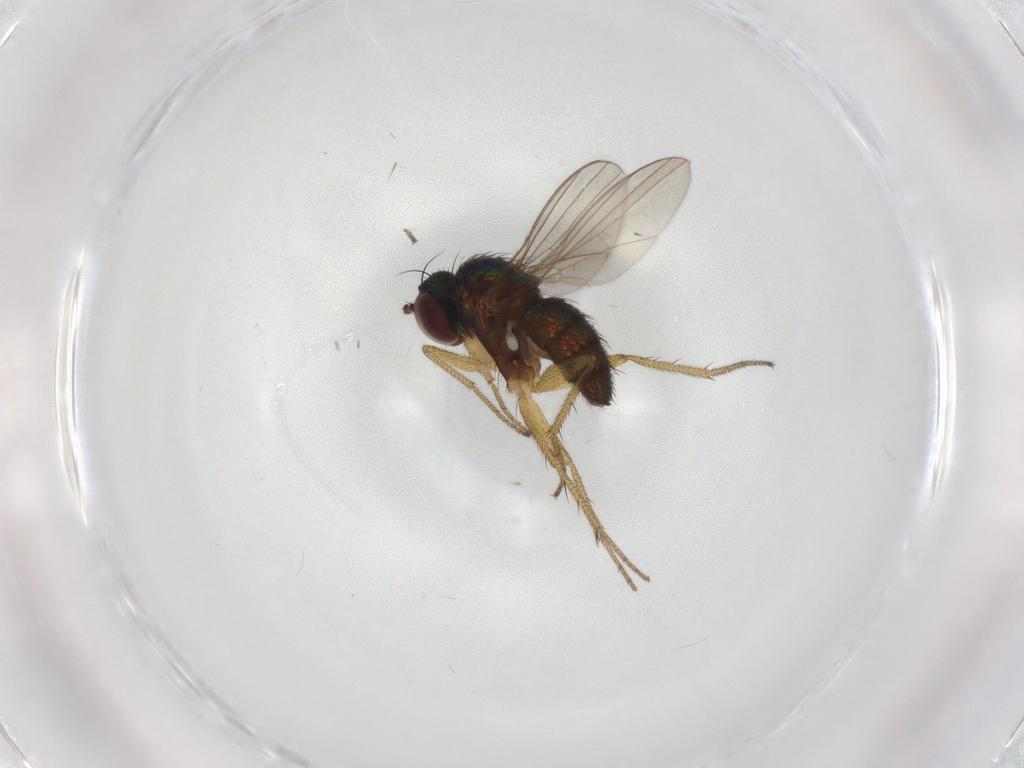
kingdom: Animalia
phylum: Arthropoda
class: Insecta
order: Diptera
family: Dolichopodidae
